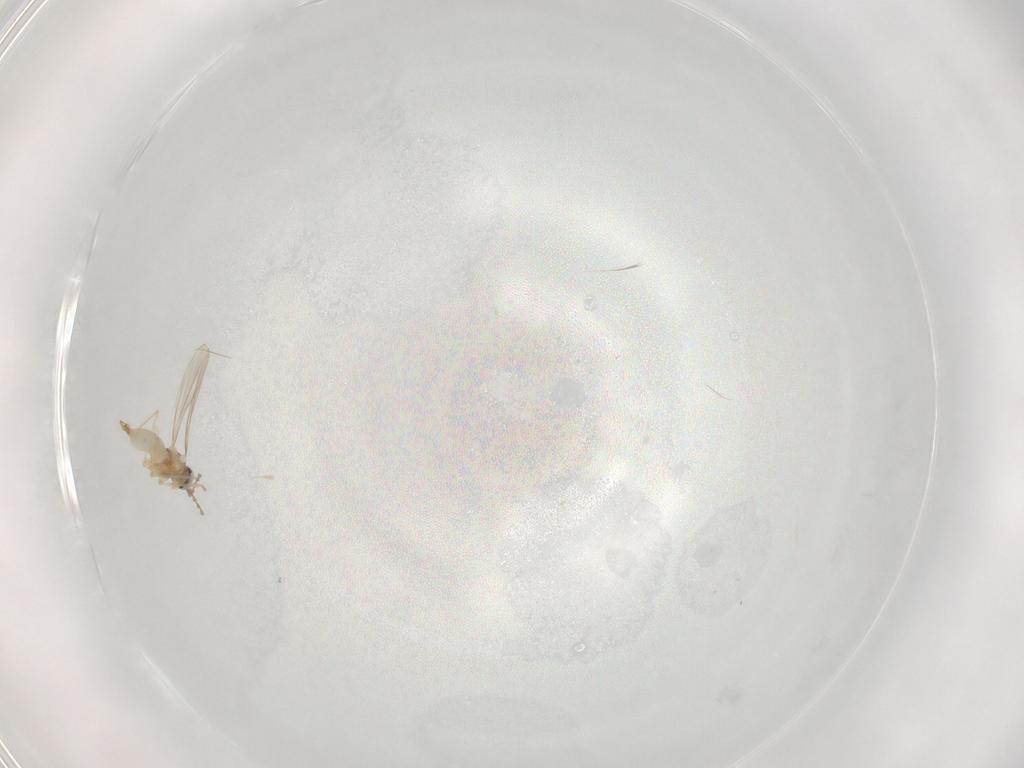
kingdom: Animalia
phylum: Arthropoda
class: Insecta
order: Diptera
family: Cecidomyiidae
